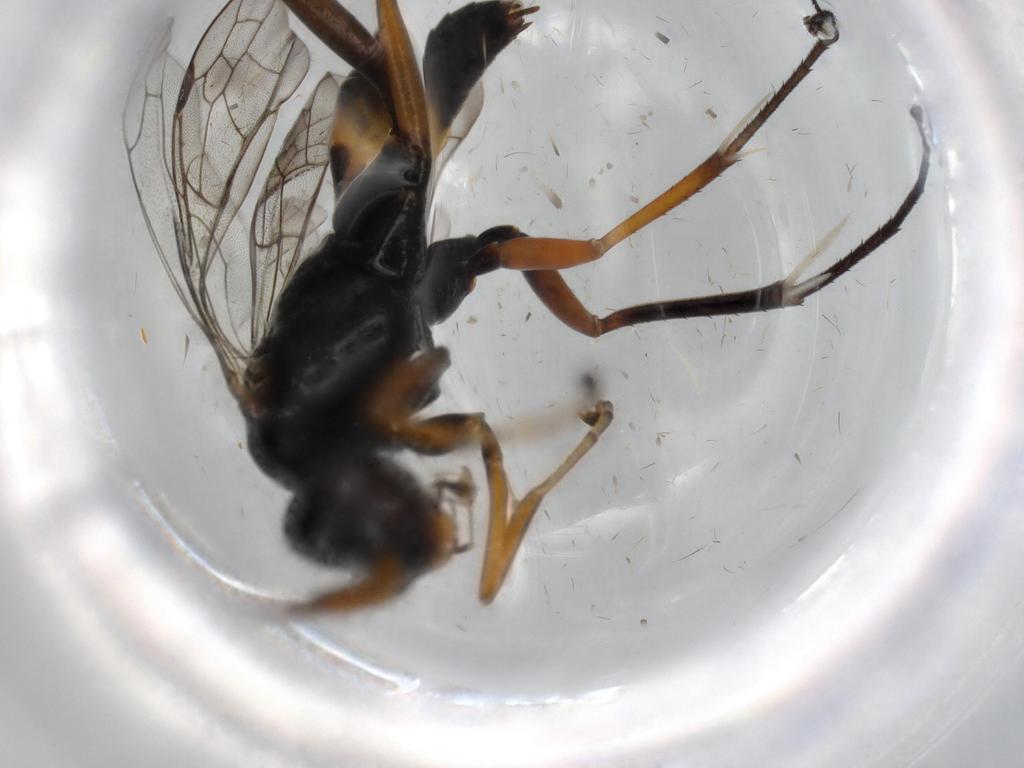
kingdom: Animalia
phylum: Arthropoda
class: Insecta
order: Hymenoptera
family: Pompilidae
